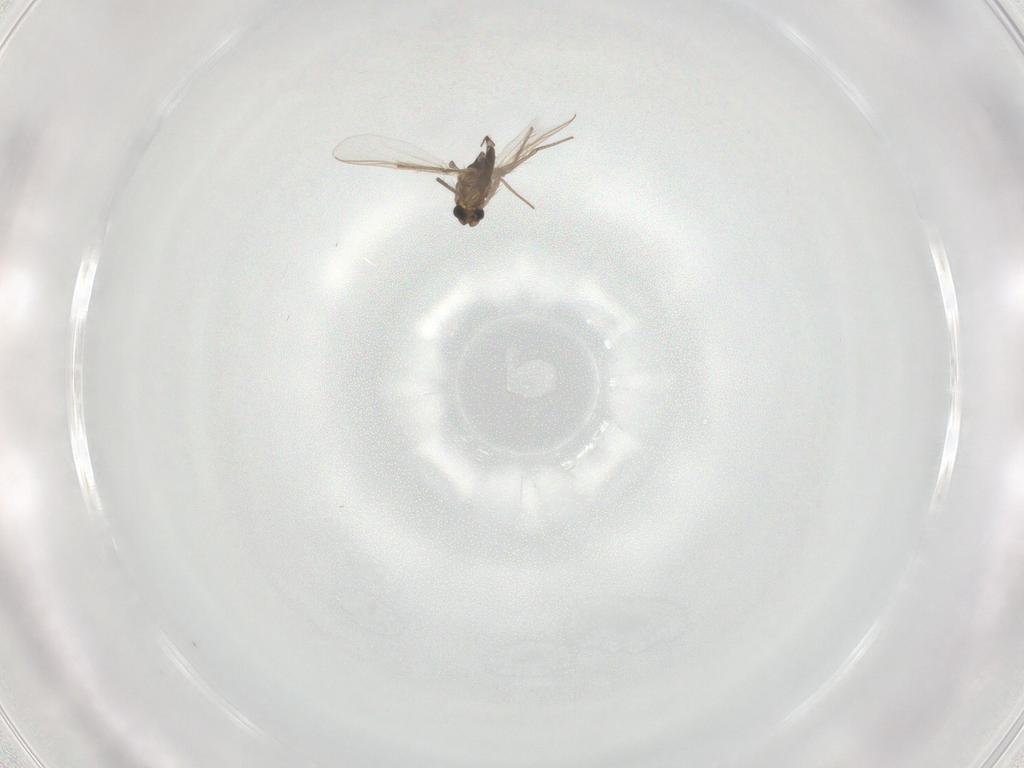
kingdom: Animalia
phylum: Arthropoda
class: Insecta
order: Diptera
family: Chironomidae
